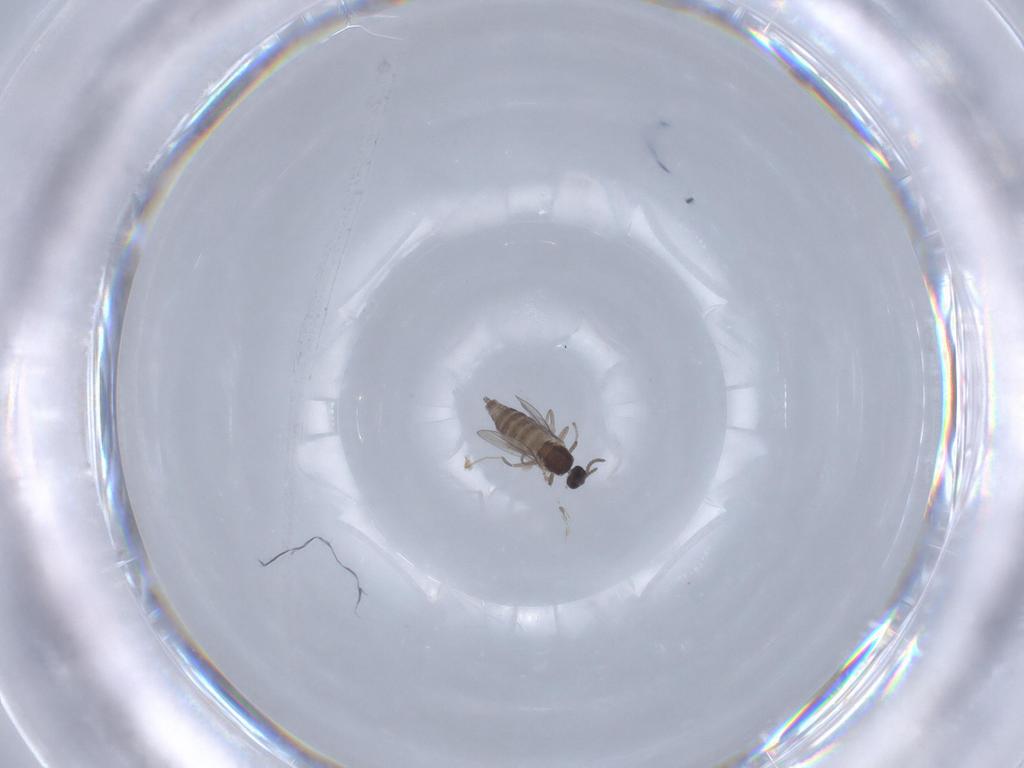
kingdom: Animalia
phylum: Arthropoda
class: Insecta
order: Diptera
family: Cecidomyiidae
